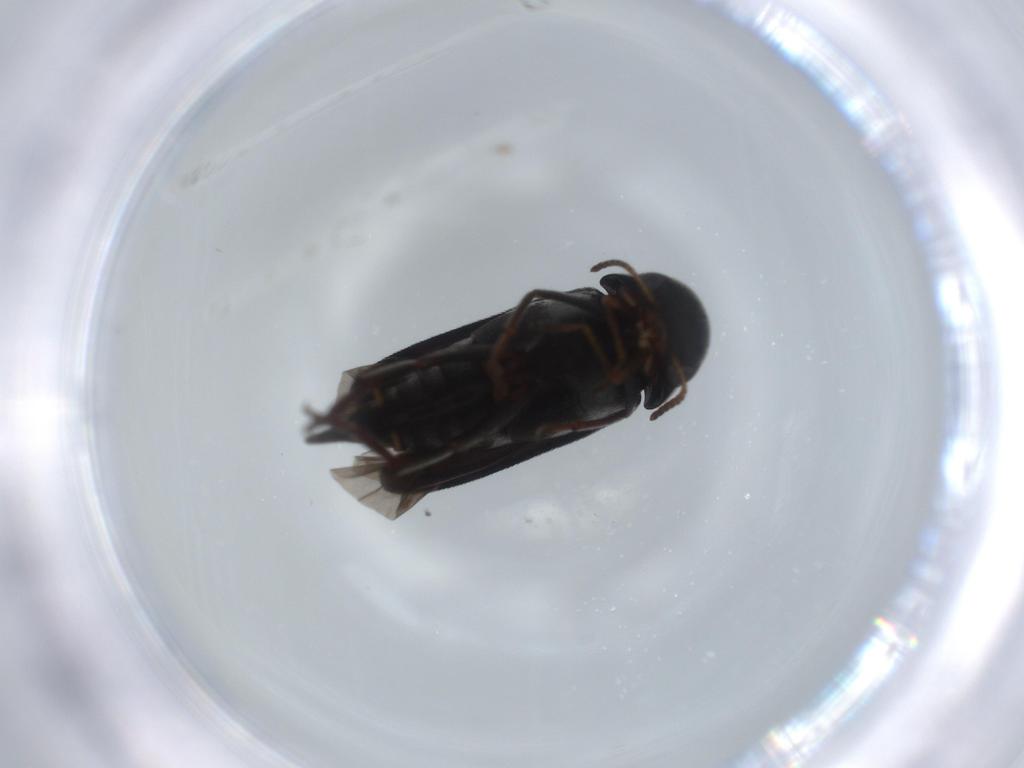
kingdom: Animalia
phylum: Arthropoda
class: Insecta
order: Coleoptera
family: Mordellidae
